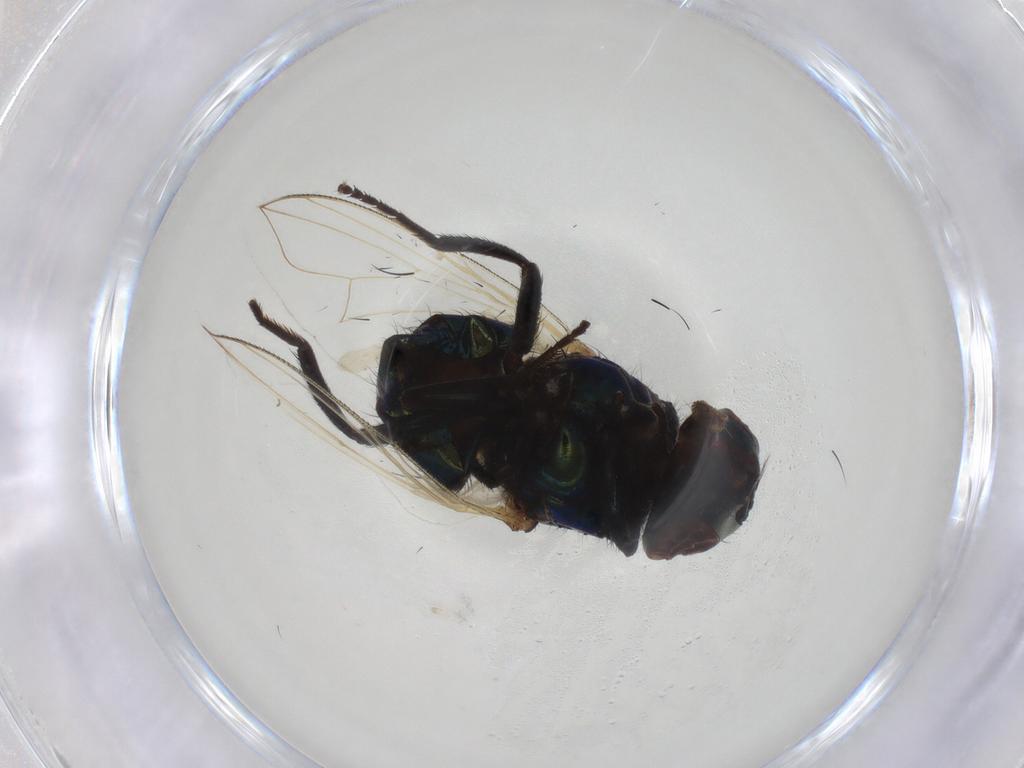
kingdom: Animalia
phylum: Arthropoda
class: Insecta
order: Diptera
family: Muscidae
